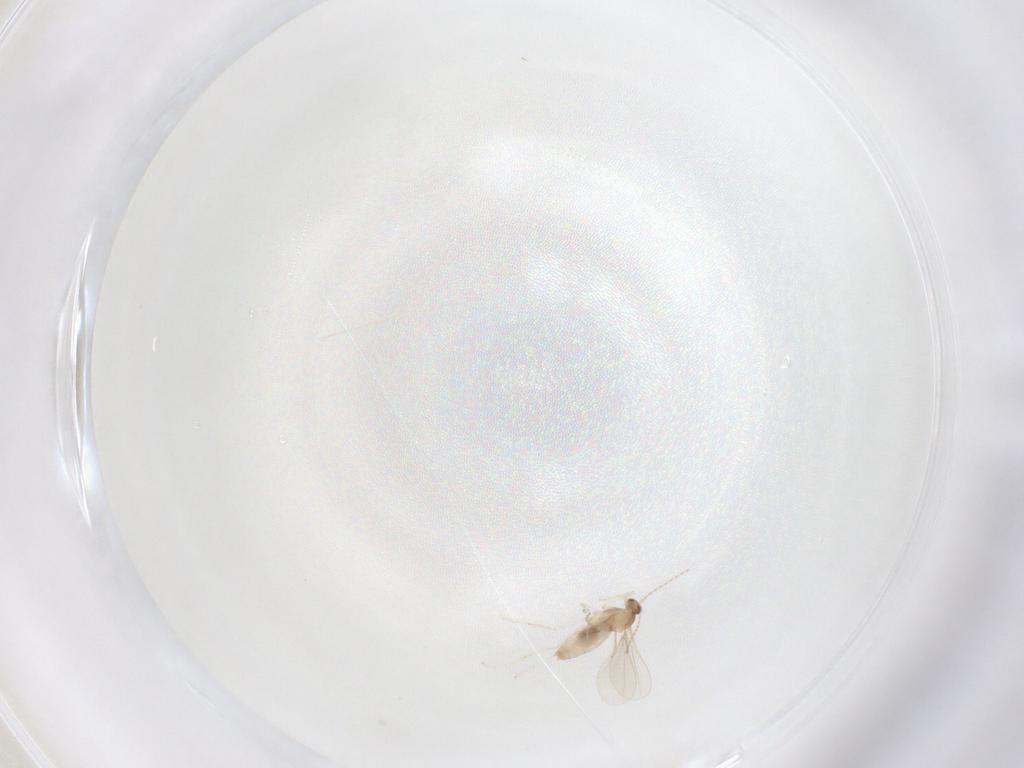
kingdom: Animalia
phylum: Arthropoda
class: Insecta
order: Diptera
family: Cecidomyiidae
